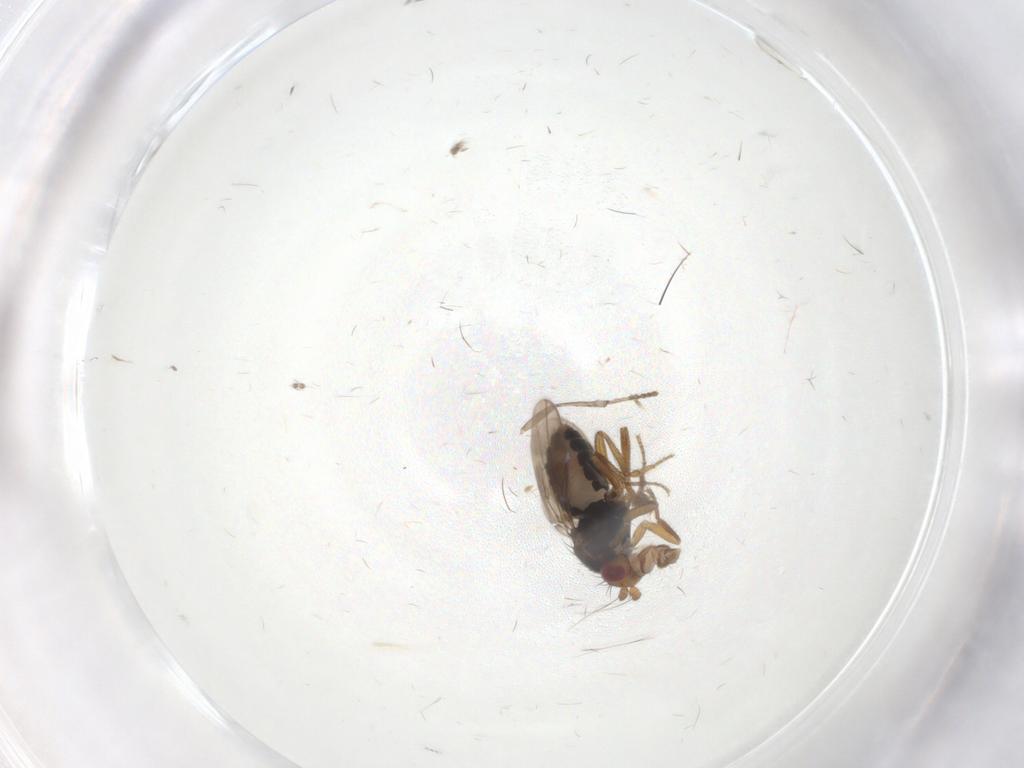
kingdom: Animalia
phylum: Arthropoda
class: Insecta
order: Diptera
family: Sphaeroceridae
